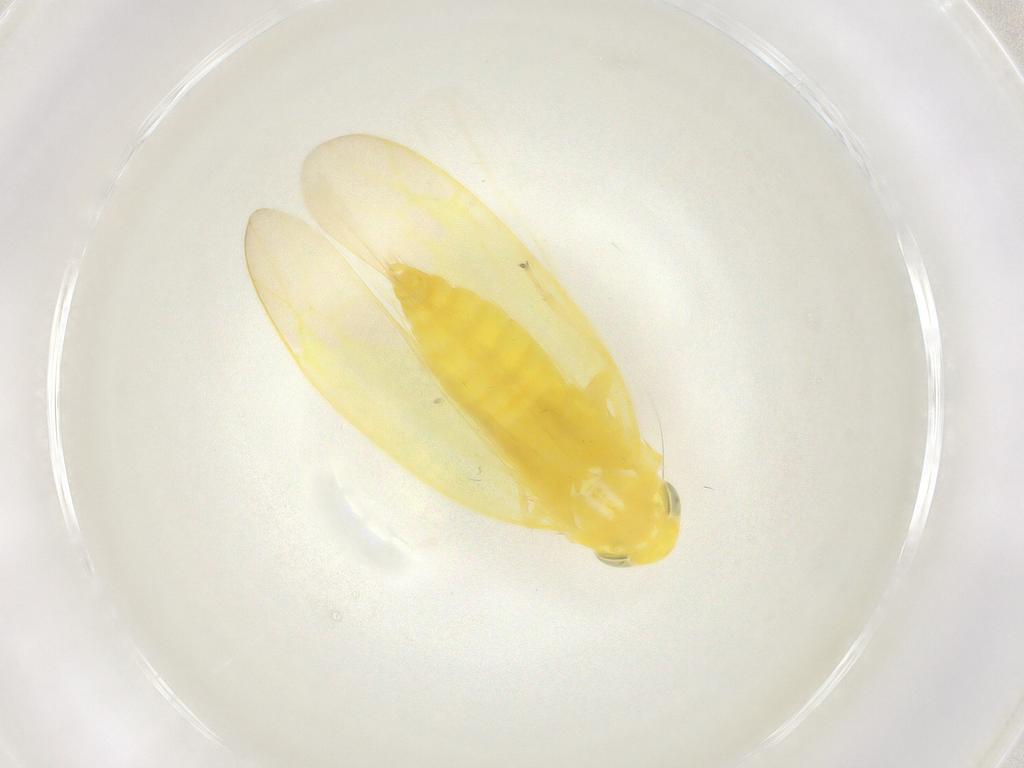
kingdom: Animalia
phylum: Arthropoda
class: Insecta
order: Hemiptera
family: Cicadellidae
